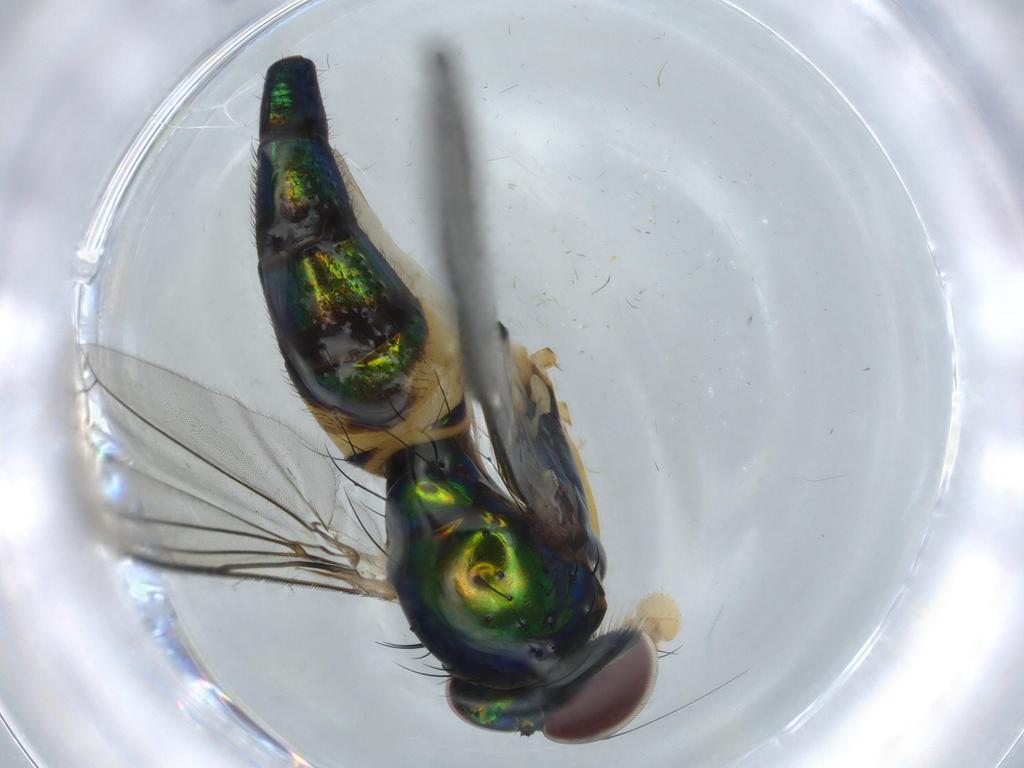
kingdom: Animalia
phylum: Arthropoda
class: Insecta
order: Diptera
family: Dolichopodidae
